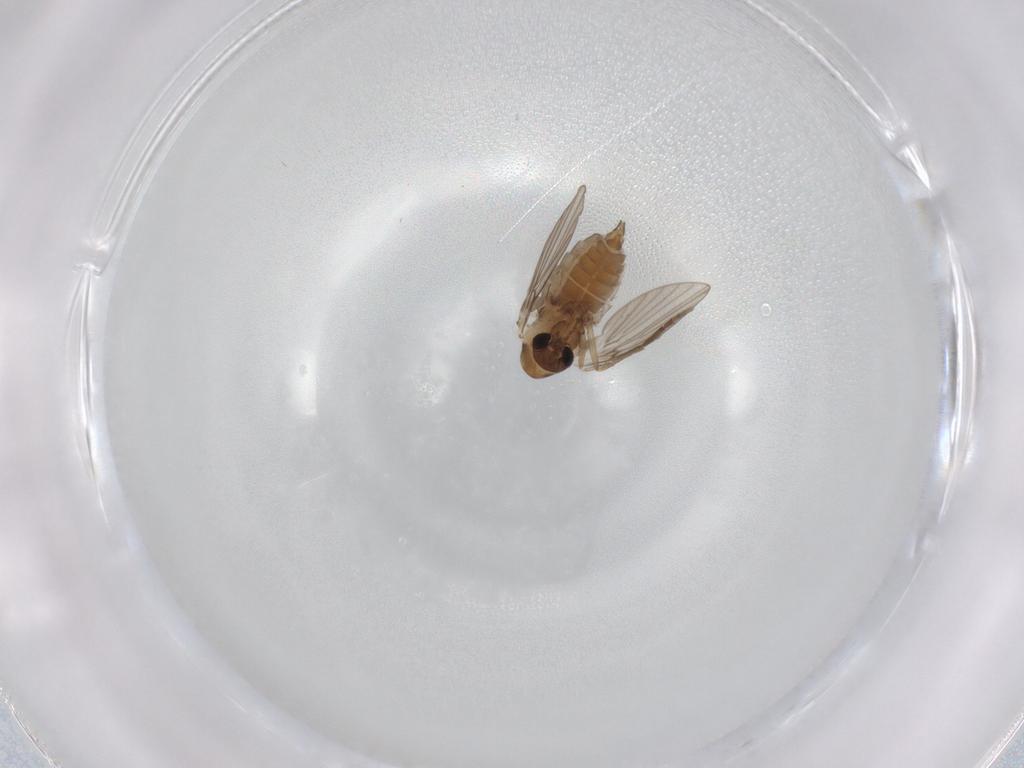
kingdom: Animalia
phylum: Arthropoda
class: Insecta
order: Diptera
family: Psychodidae
